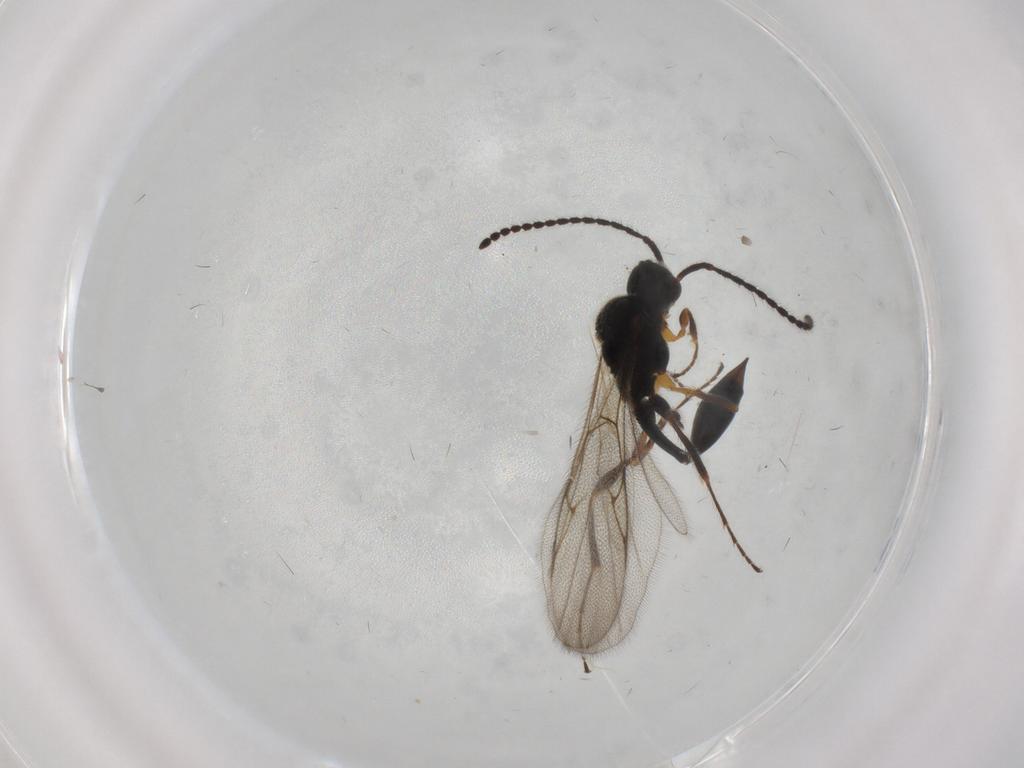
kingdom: Animalia
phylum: Arthropoda
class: Insecta
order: Hymenoptera
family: Diapriidae
